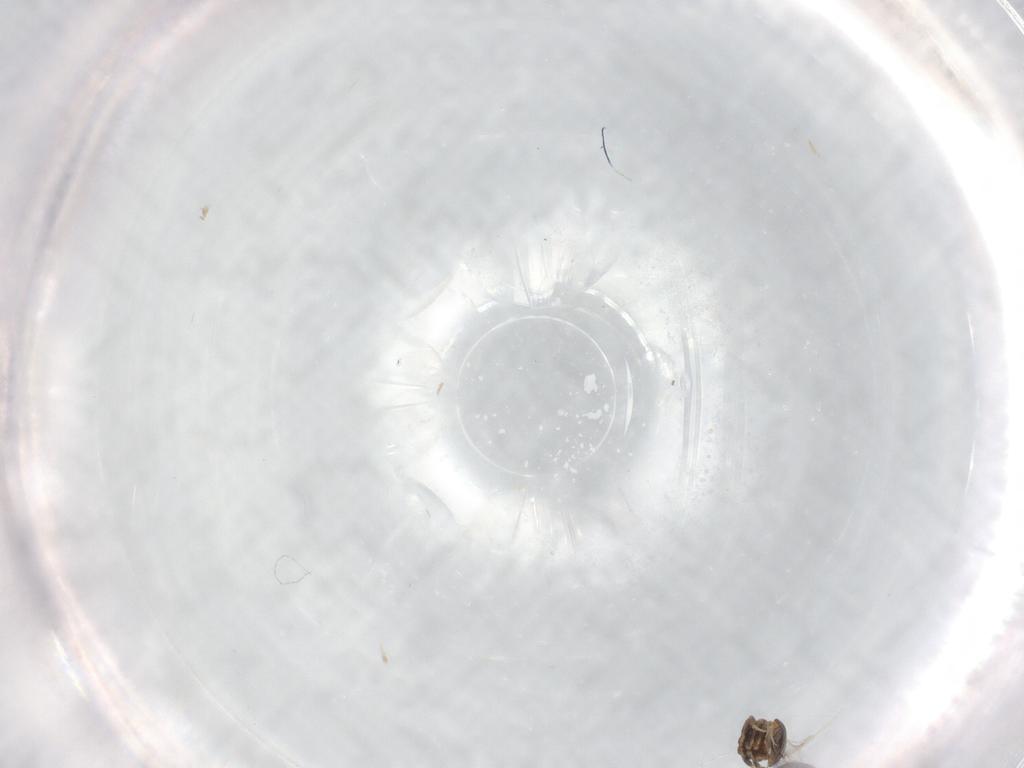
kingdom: Animalia
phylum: Arthropoda
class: Insecta
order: Hymenoptera
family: Scelionidae
